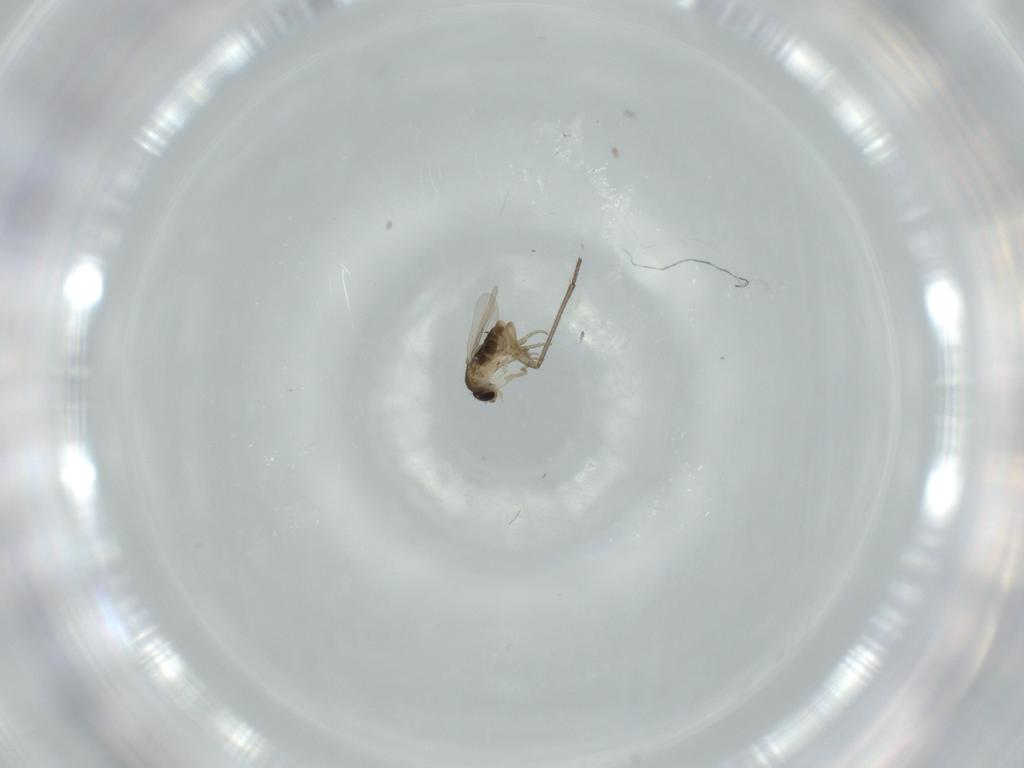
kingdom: Animalia
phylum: Arthropoda
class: Insecta
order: Diptera
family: Phoridae
